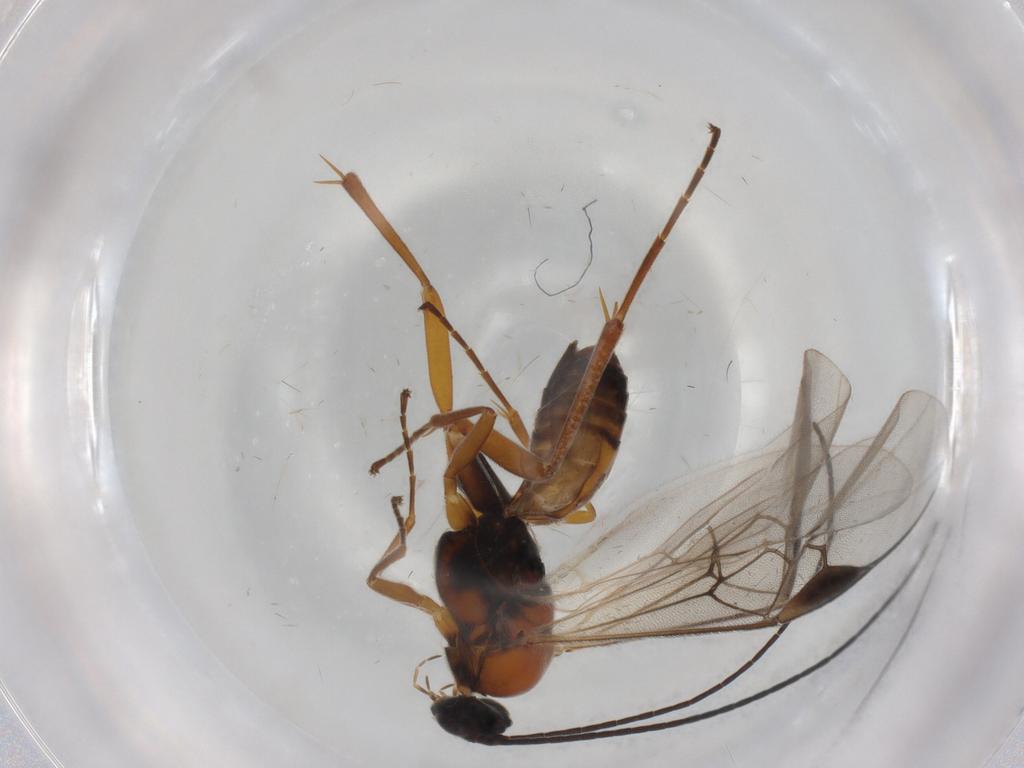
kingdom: Animalia
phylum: Arthropoda
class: Insecta
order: Hymenoptera
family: Braconidae
